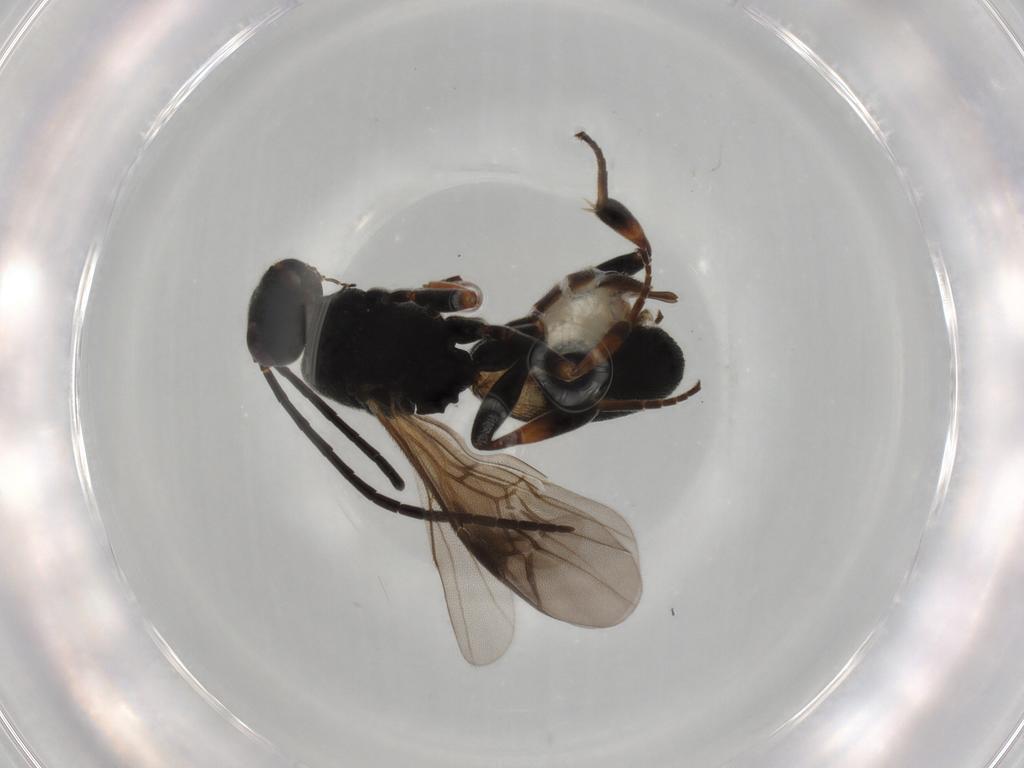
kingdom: Animalia
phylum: Arthropoda
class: Insecta
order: Hymenoptera
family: Braconidae
